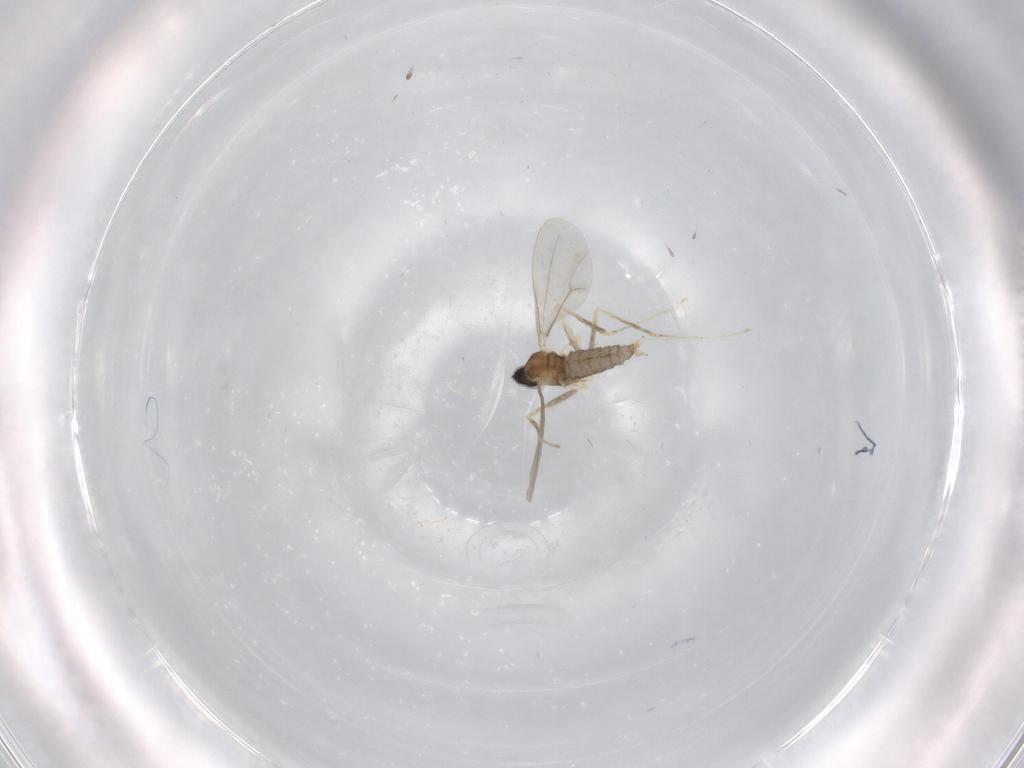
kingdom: Animalia
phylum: Arthropoda
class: Insecta
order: Diptera
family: Cecidomyiidae
